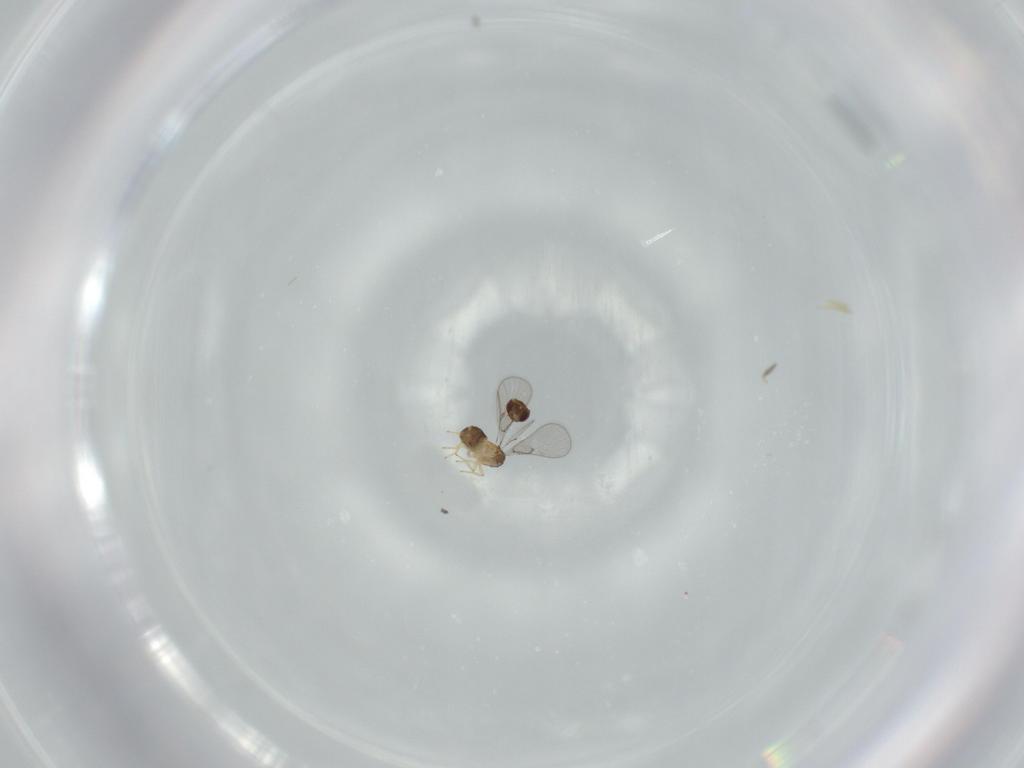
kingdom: Animalia
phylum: Arthropoda
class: Insecta
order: Hymenoptera
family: Trichogrammatidae
